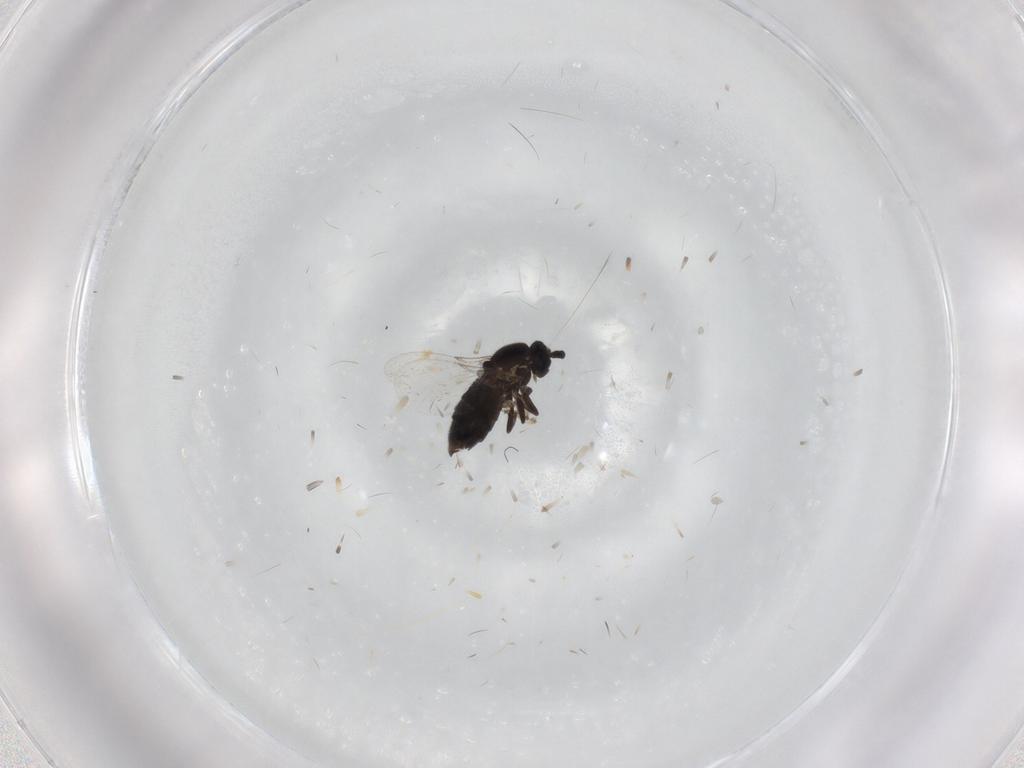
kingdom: Animalia
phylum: Arthropoda
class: Insecta
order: Diptera
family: Scatopsidae
